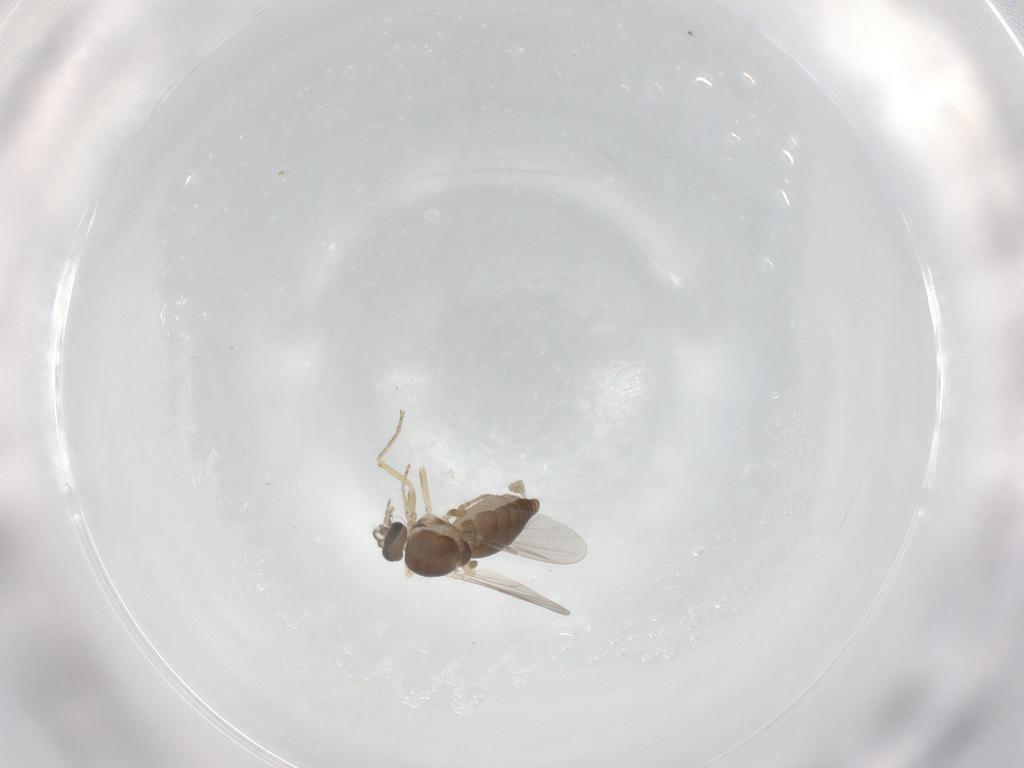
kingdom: Animalia
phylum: Arthropoda
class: Insecta
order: Diptera
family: Ceratopogonidae
